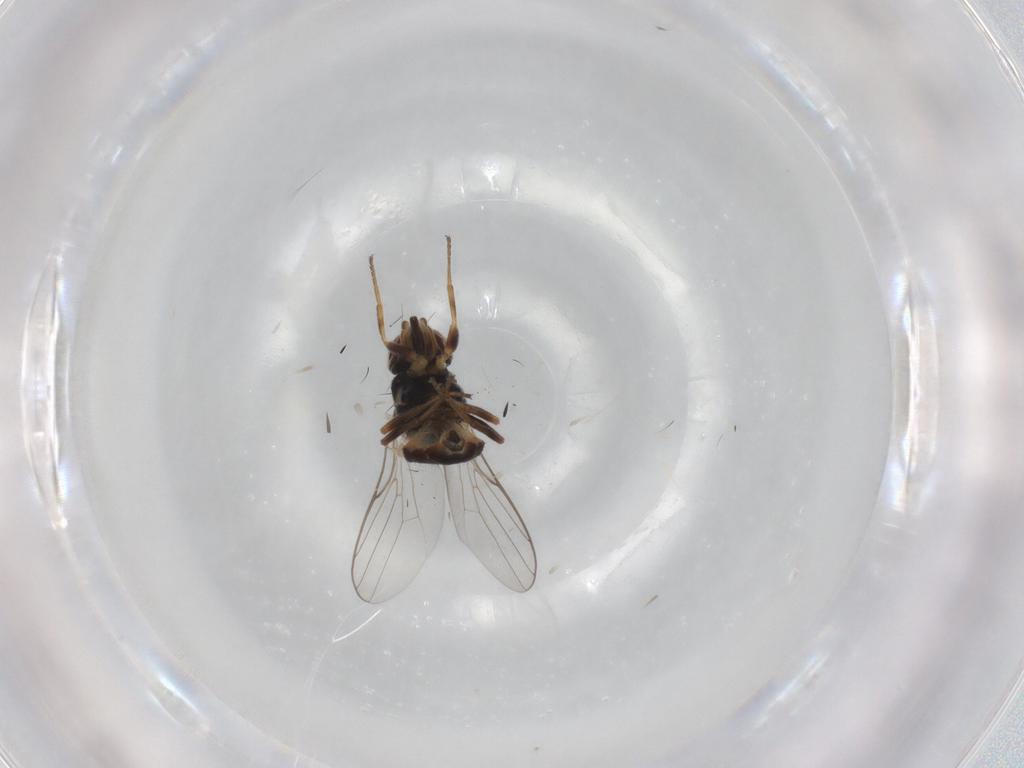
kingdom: Animalia
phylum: Arthropoda
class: Insecta
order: Diptera
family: Chloropidae
